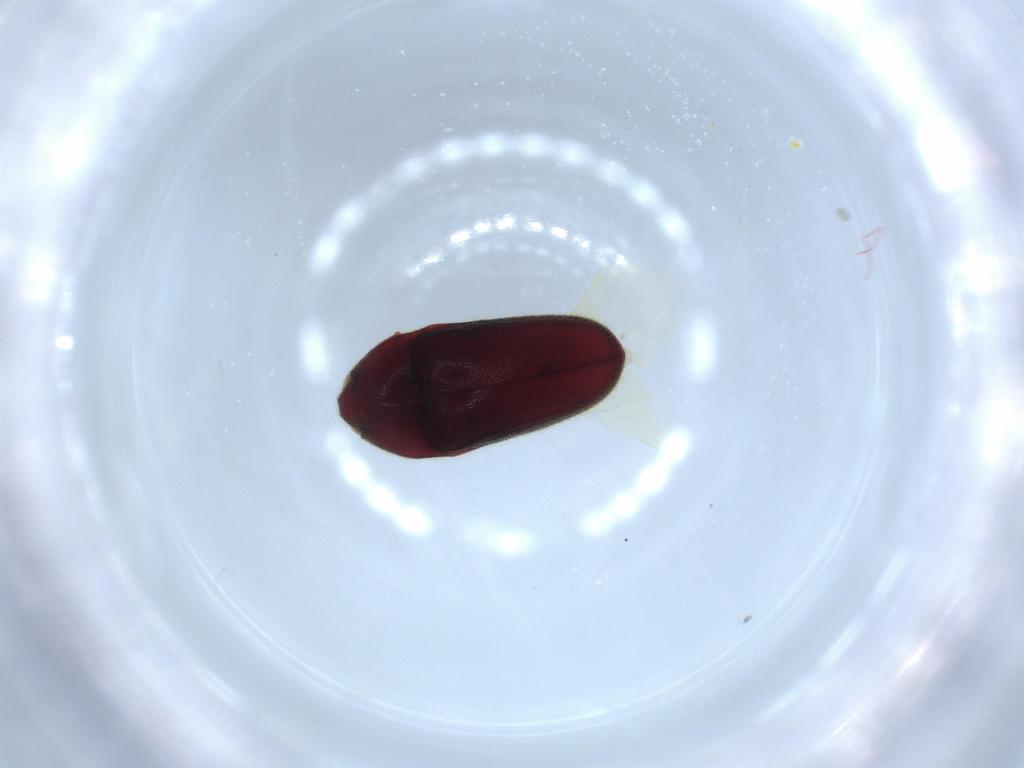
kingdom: Animalia
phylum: Arthropoda
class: Insecta
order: Coleoptera
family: Throscidae
